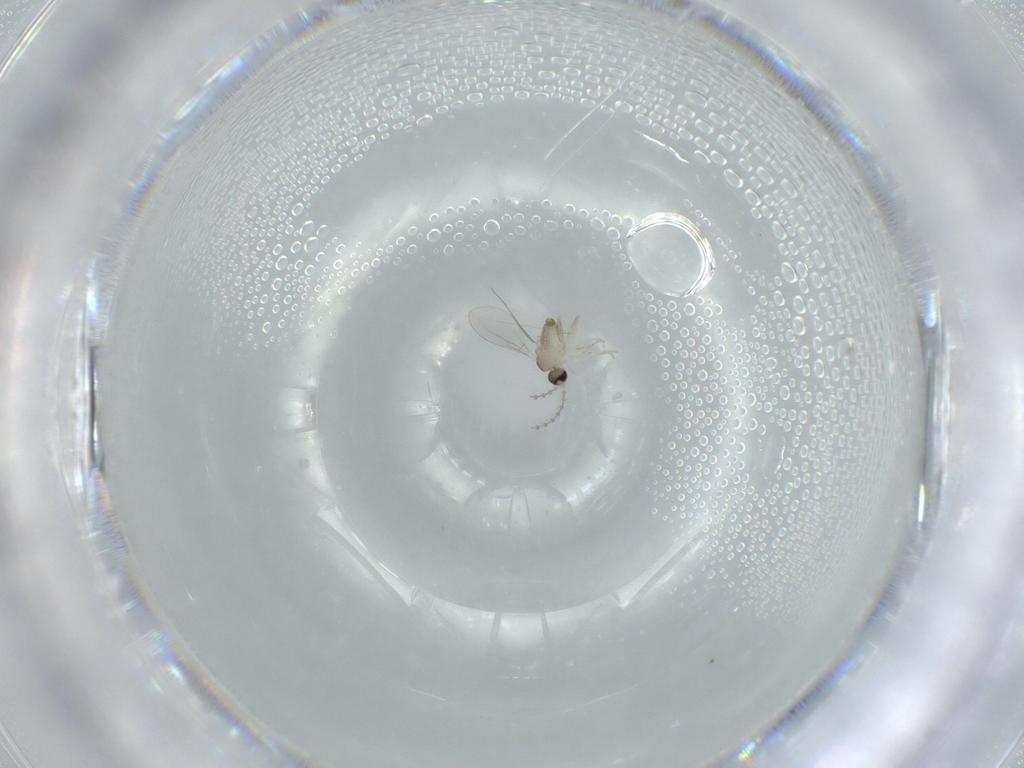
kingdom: Animalia
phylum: Arthropoda
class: Insecta
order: Diptera
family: Cecidomyiidae
